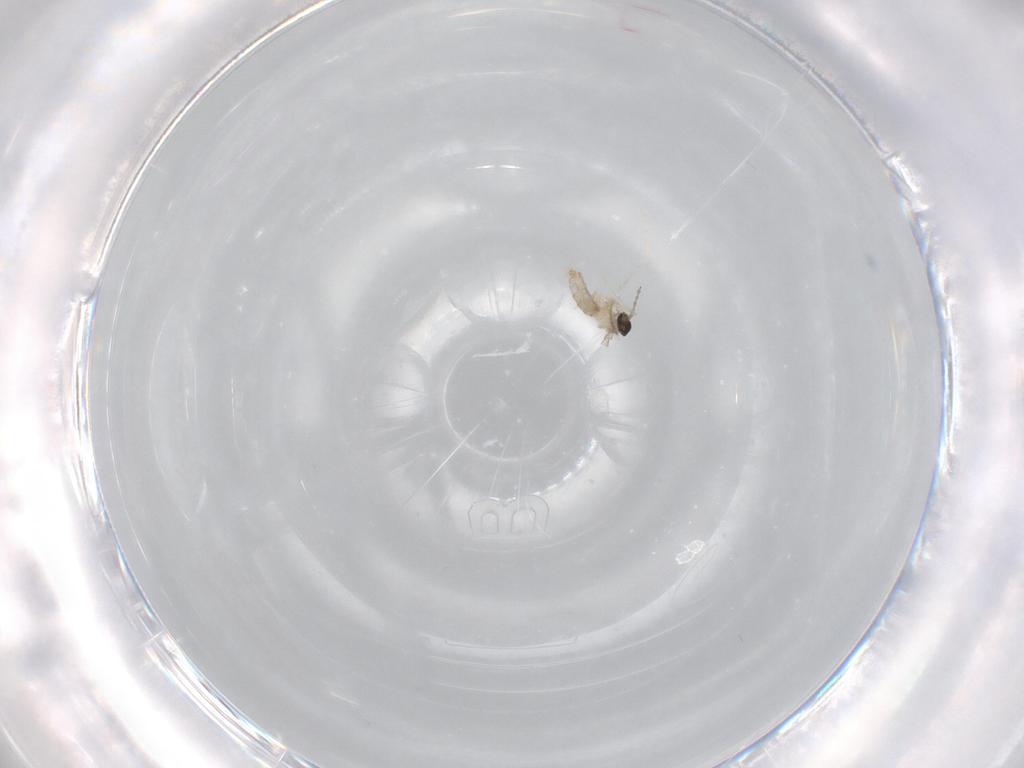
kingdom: Animalia
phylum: Arthropoda
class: Insecta
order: Diptera
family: Chironomidae
